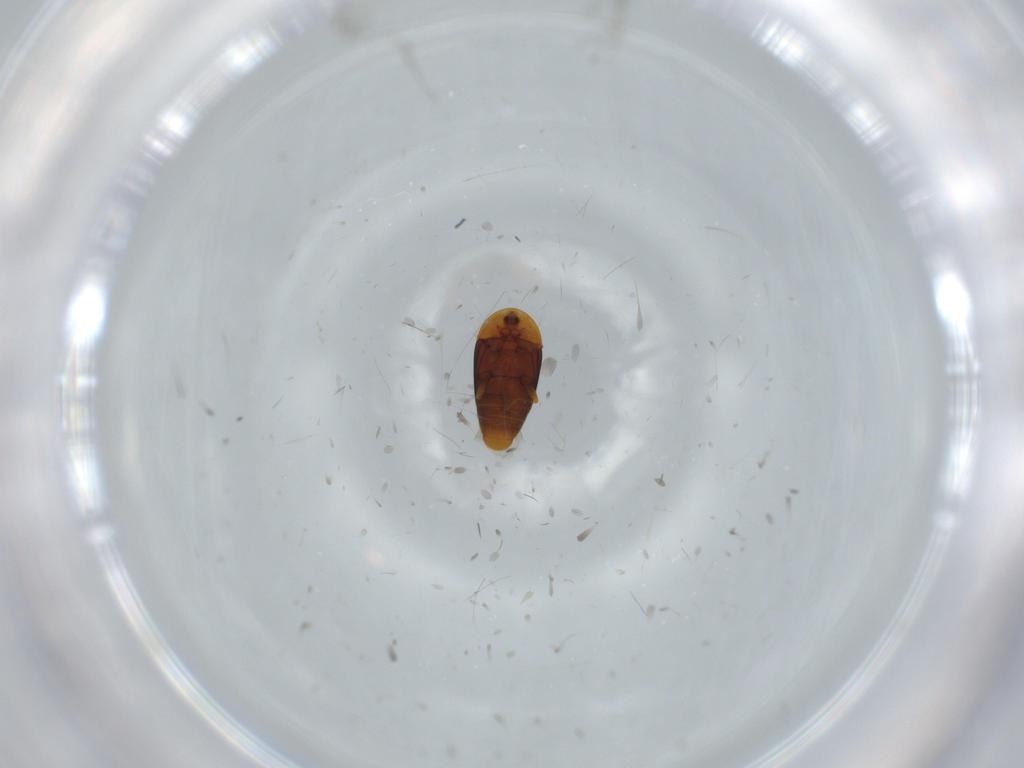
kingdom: Animalia
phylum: Arthropoda
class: Insecta
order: Coleoptera
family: Corylophidae
